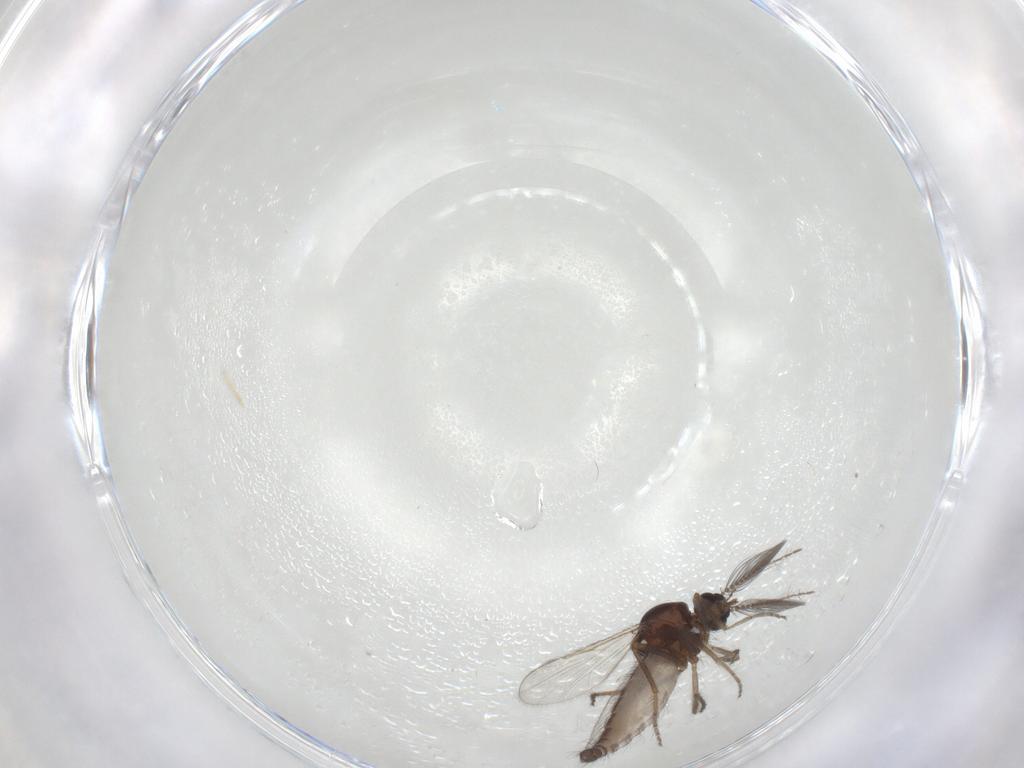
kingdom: Animalia
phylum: Arthropoda
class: Insecta
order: Diptera
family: Ceratopogonidae
